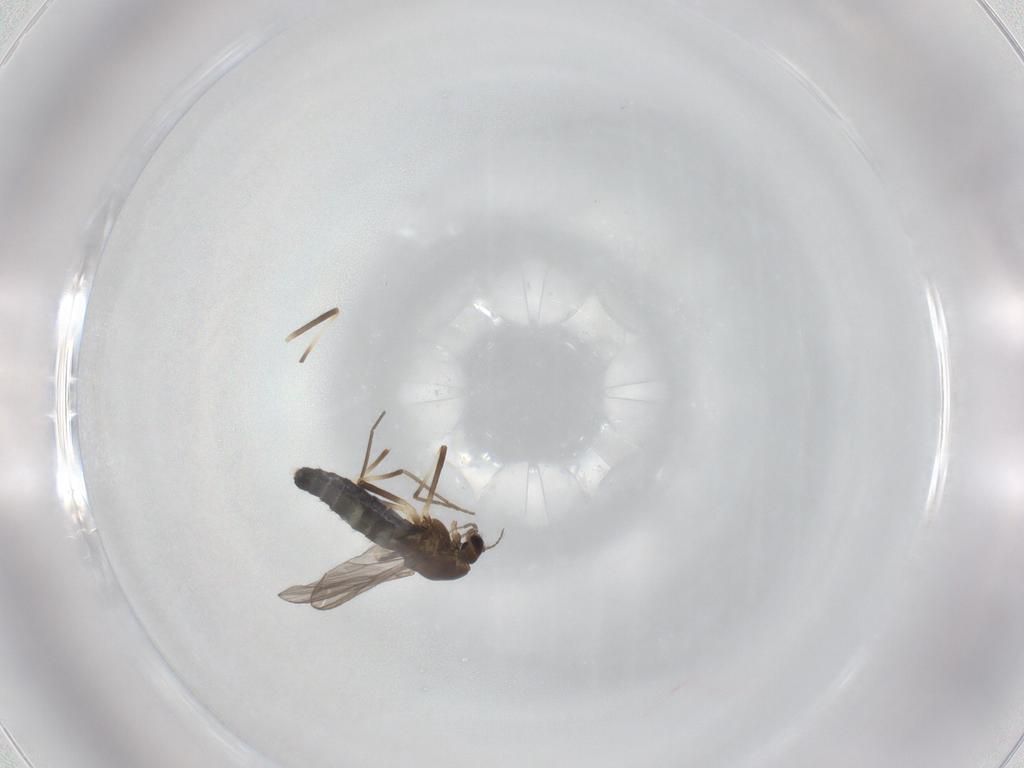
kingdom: Animalia
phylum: Arthropoda
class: Insecta
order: Diptera
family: Chironomidae
